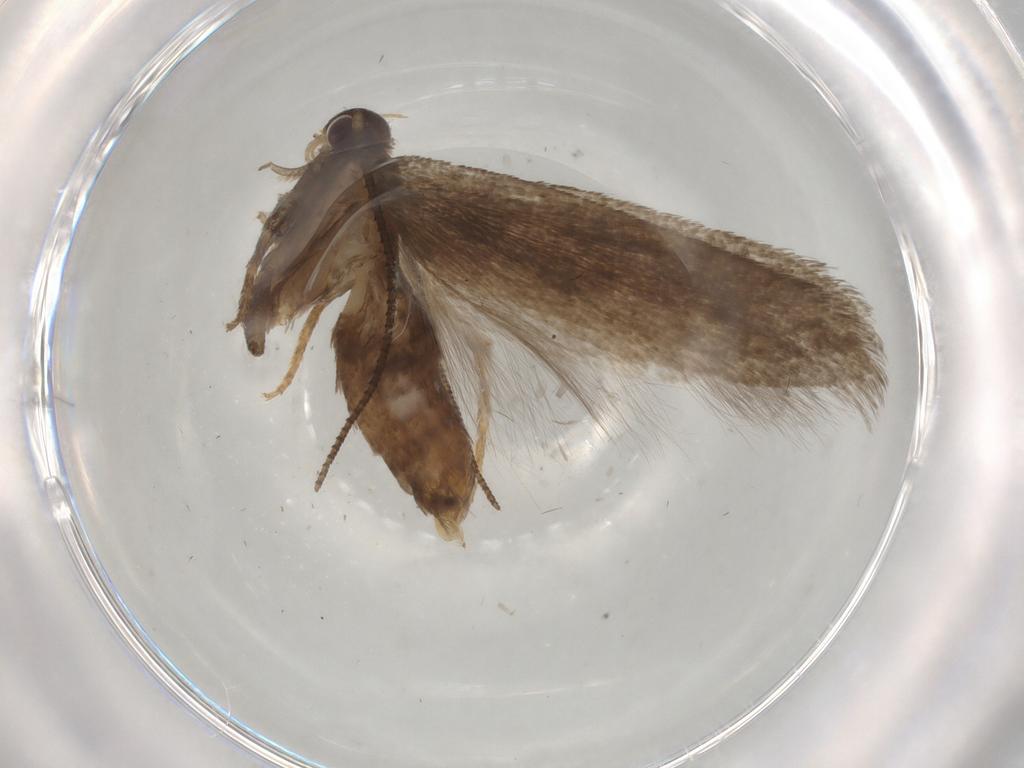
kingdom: Animalia
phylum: Arthropoda
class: Insecta
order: Lepidoptera
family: Gelechiidae
